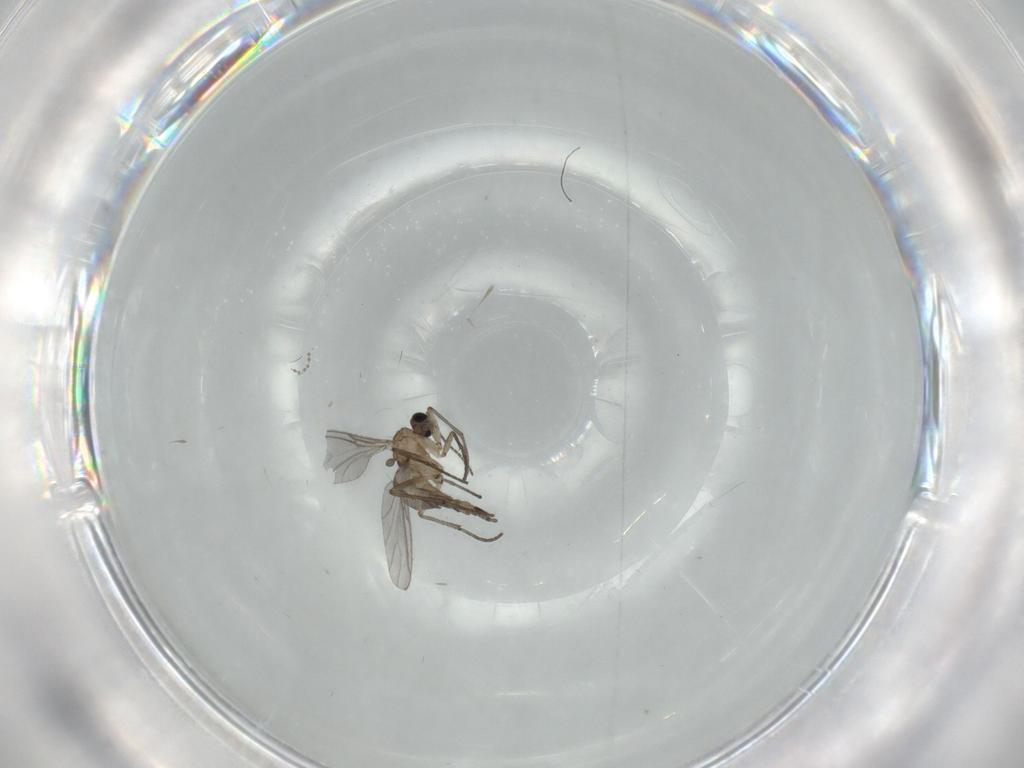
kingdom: Animalia
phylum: Arthropoda
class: Insecta
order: Diptera
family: Sciaridae
